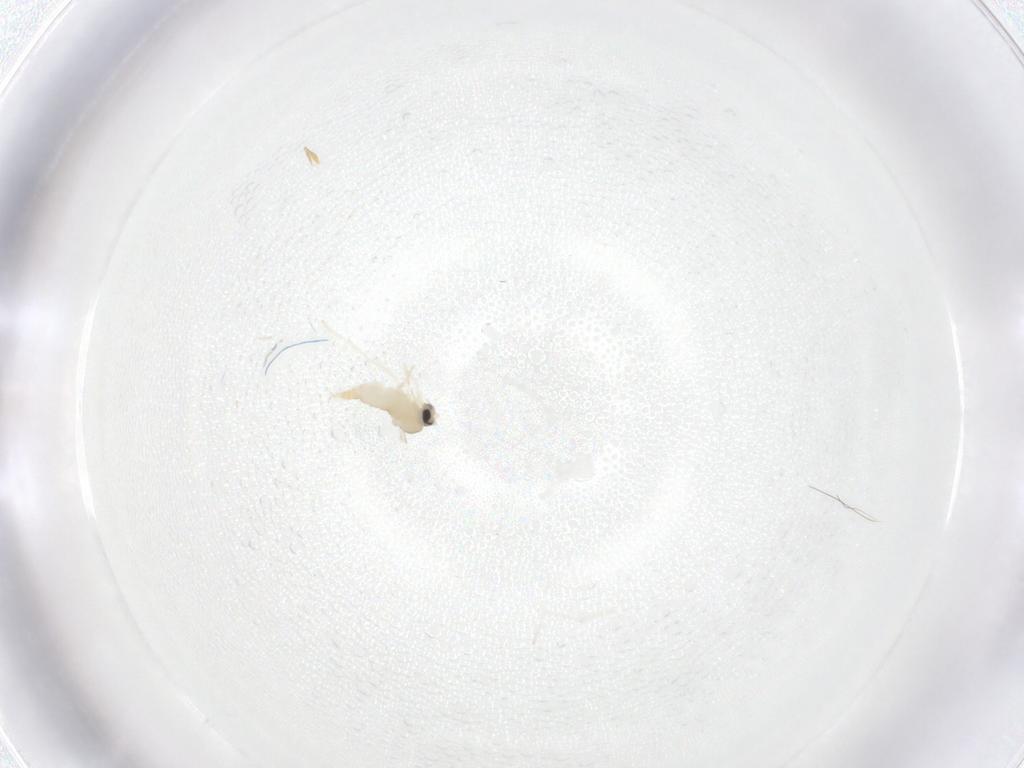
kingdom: Animalia
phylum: Arthropoda
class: Insecta
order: Diptera
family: Cecidomyiidae
